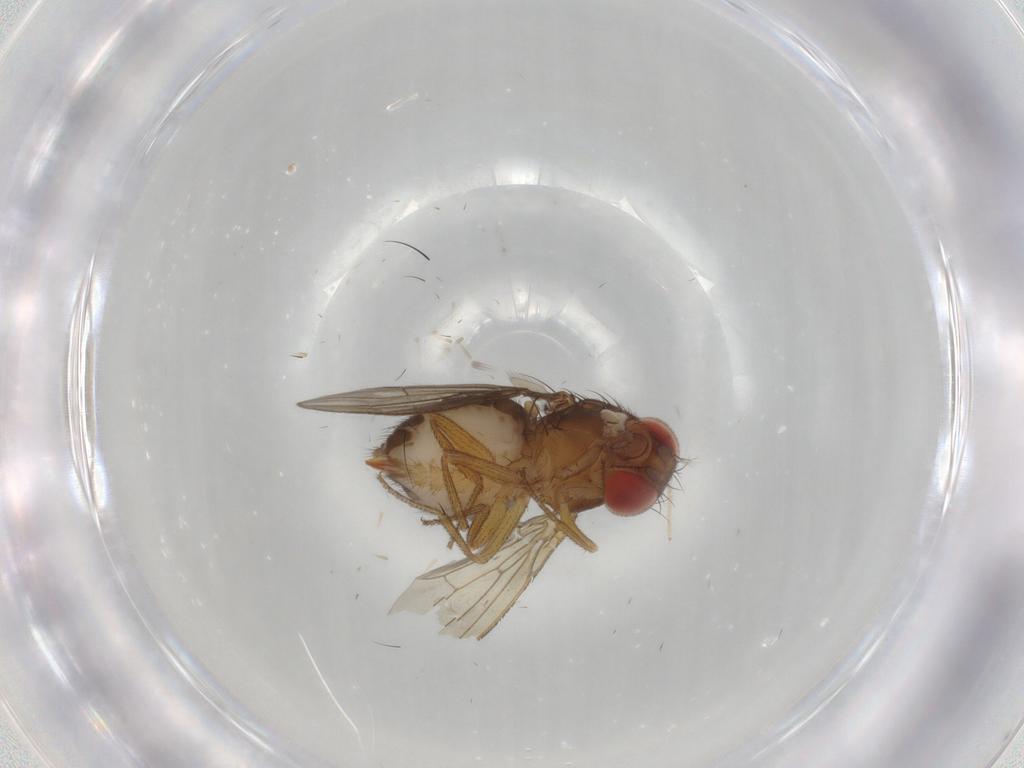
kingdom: Animalia
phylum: Arthropoda
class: Insecta
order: Diptera
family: Drosophilidae
